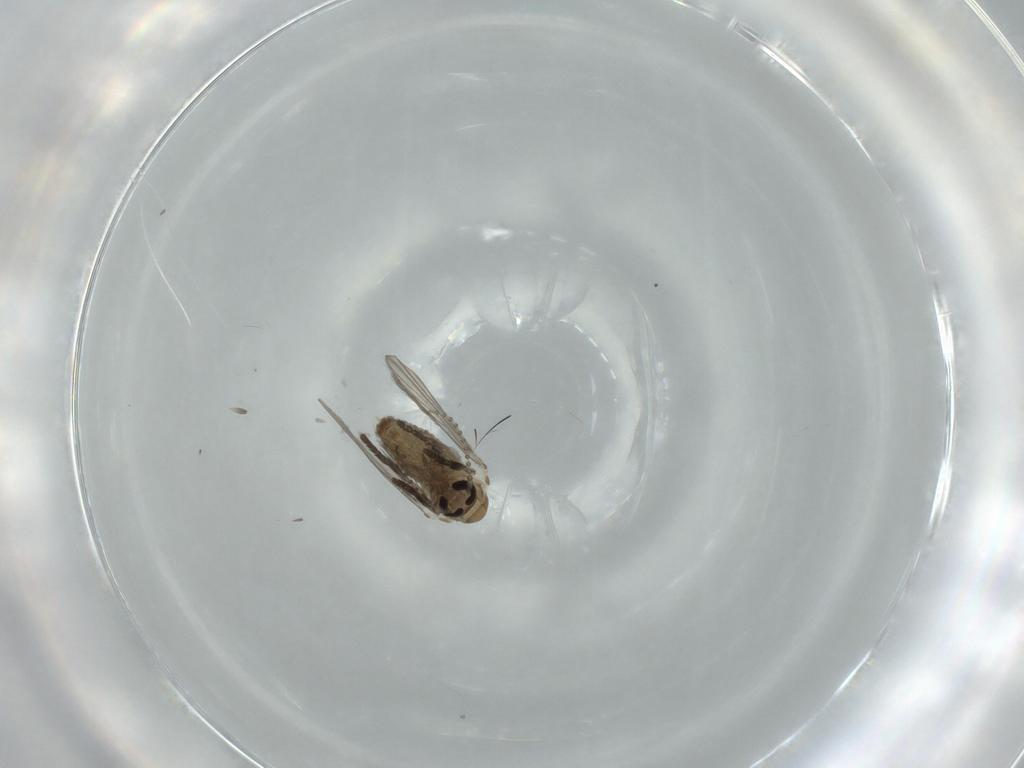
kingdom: Animalia
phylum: Arthropoda
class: Insecta
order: Diptera
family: Psychodidae
